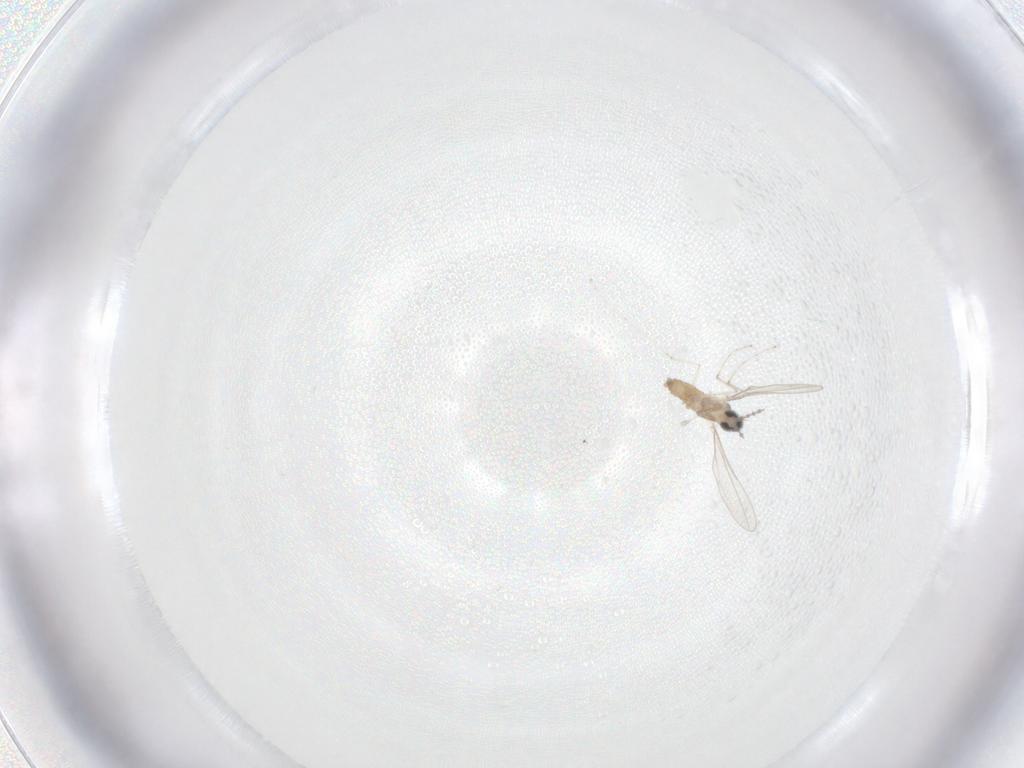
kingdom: Animalia
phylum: Arthropoda
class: Insecta
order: Diptera
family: Cecidomyiidae
